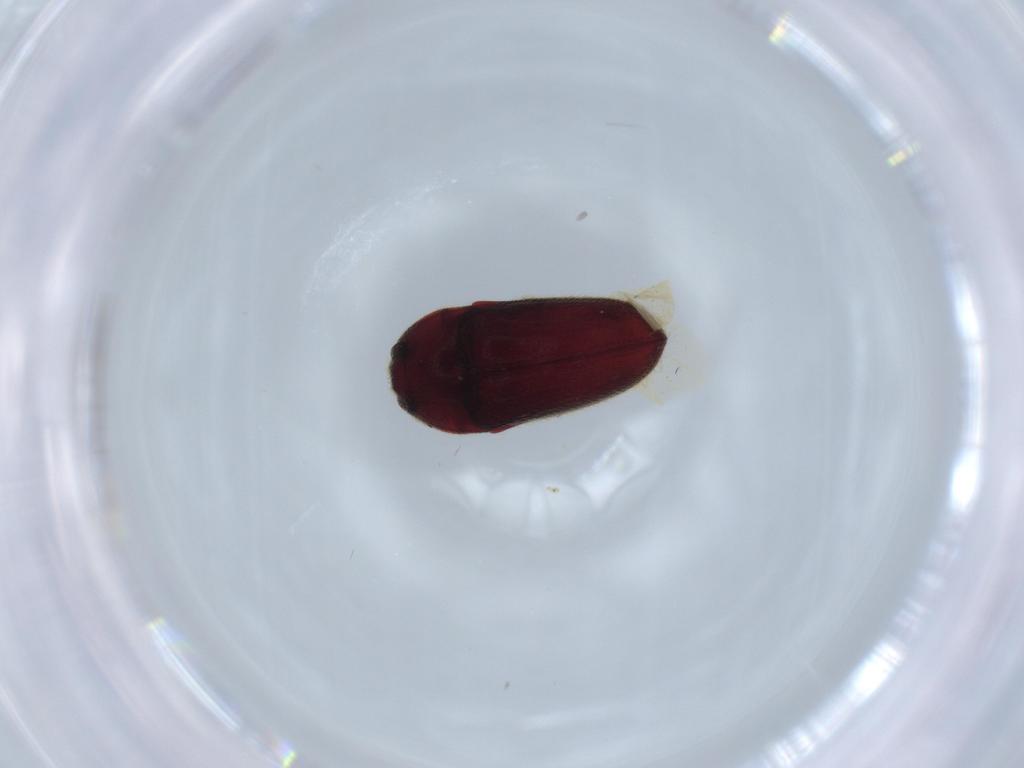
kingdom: Animalia
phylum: Arthropoda
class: Insecta
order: Coleoptera
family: Throscidae
